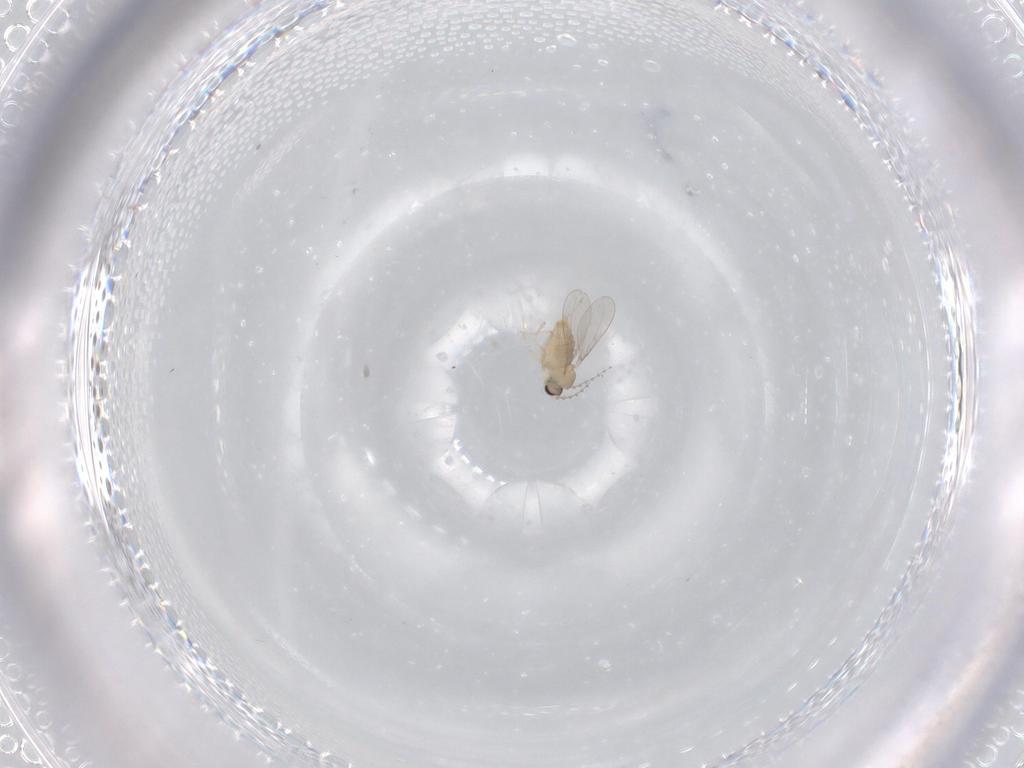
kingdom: Animalia
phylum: Arthropoda
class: Insecta
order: Diptera
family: Cecidomyiidae
